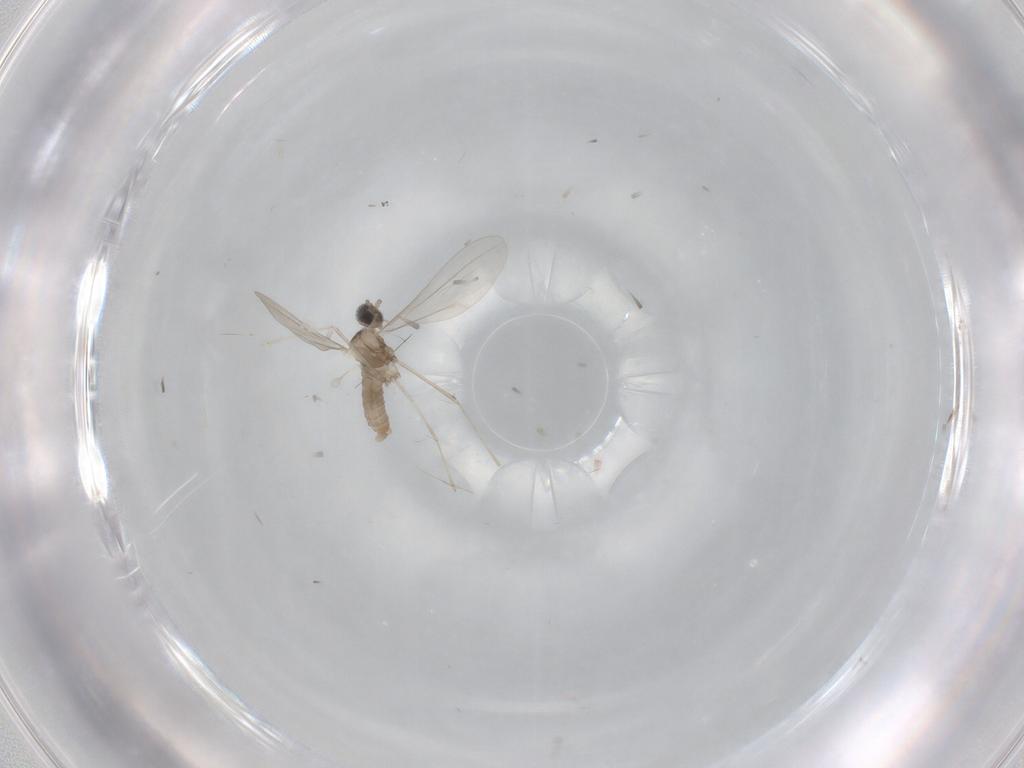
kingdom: Animalia
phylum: Arthropoda
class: Insecta
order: Diptera
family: Cecidomyiidae
